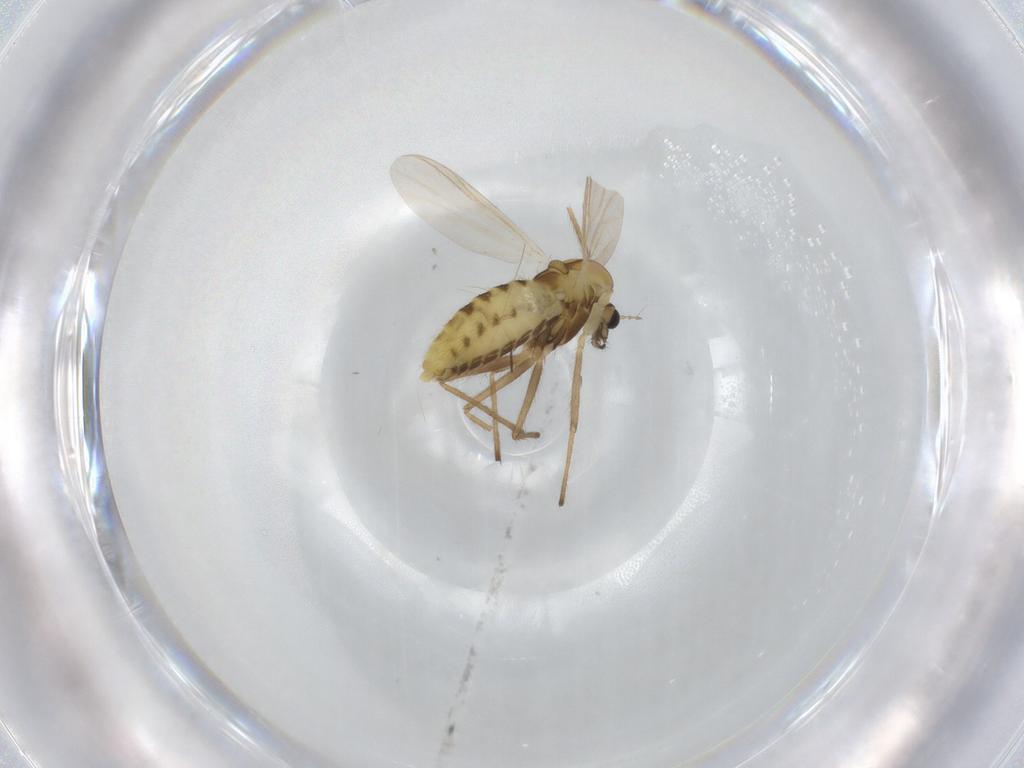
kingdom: Animalia
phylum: Arthropoda
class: Insecta
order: Diptera
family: Chironomidae
